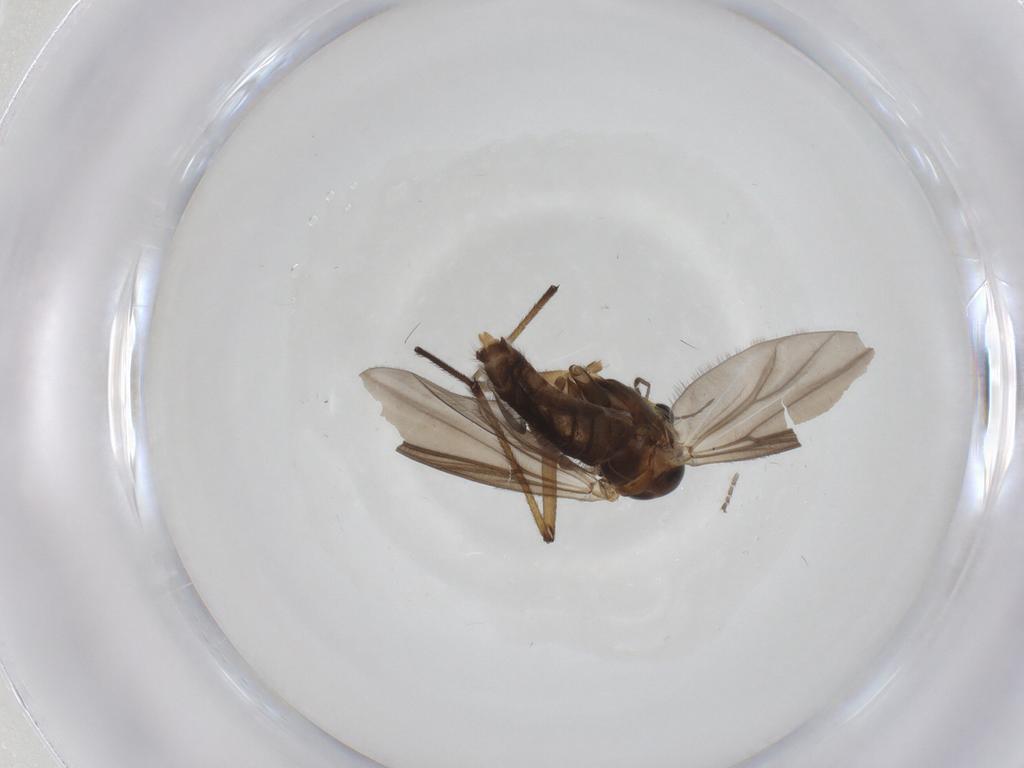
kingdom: Animalia
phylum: Arthropoda
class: Insecta
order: Diptera
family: Chironomidae
